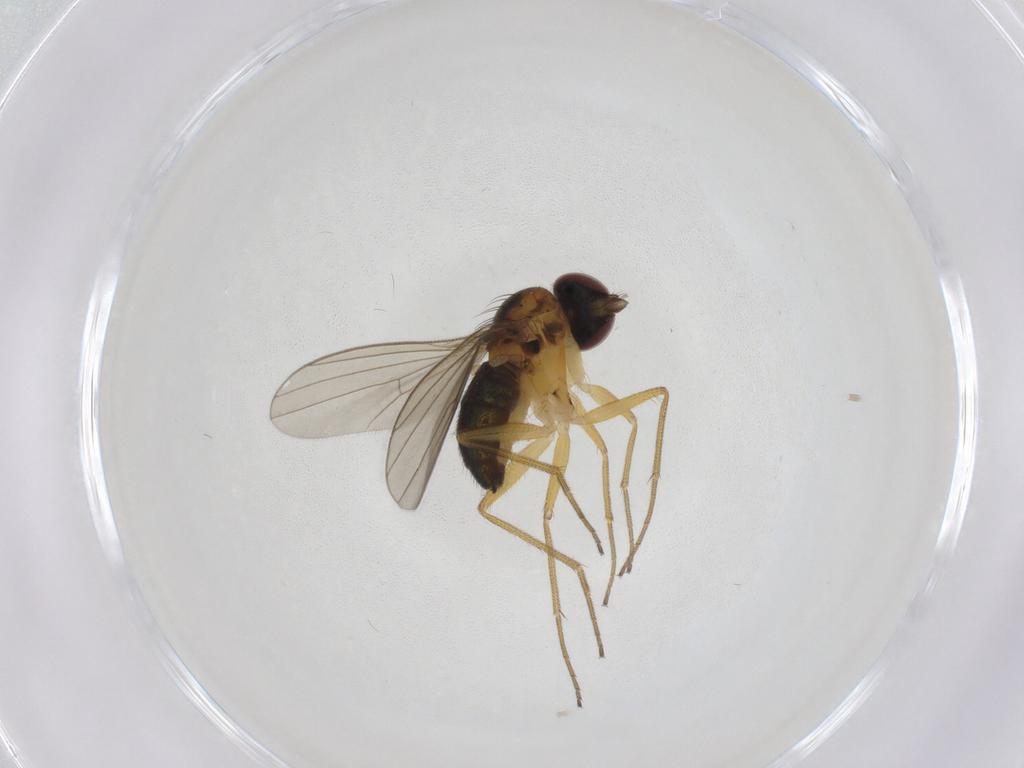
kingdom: Animalia
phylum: Arthropoda
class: Insecta
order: Diptera
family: Dolichopodidae
